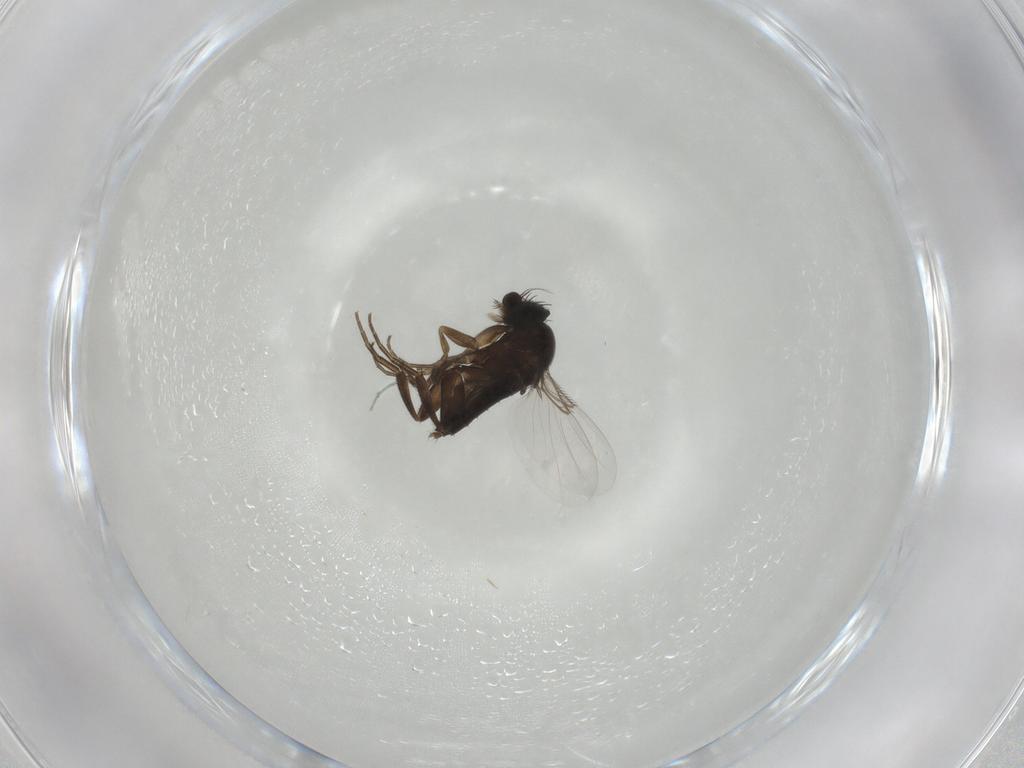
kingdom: Animalia
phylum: Arthropoda
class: Insecta
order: Diptera
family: Phoridae
